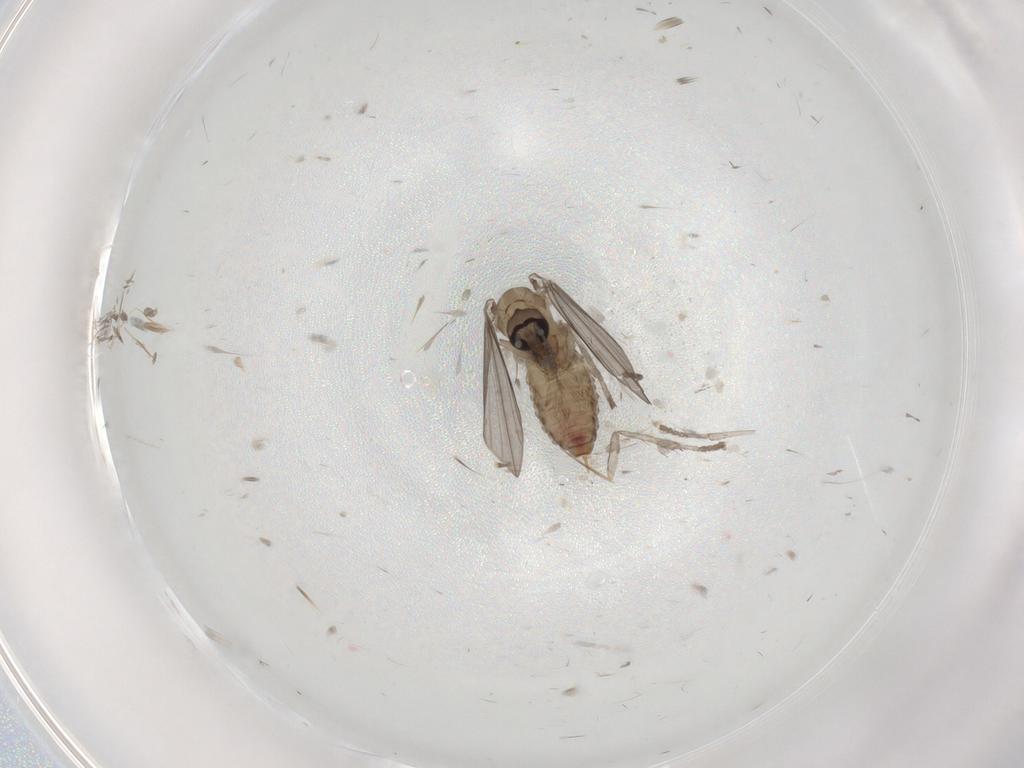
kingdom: Animalia
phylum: Arthropoda
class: Insecta
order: Diptera
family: Psychodidae
